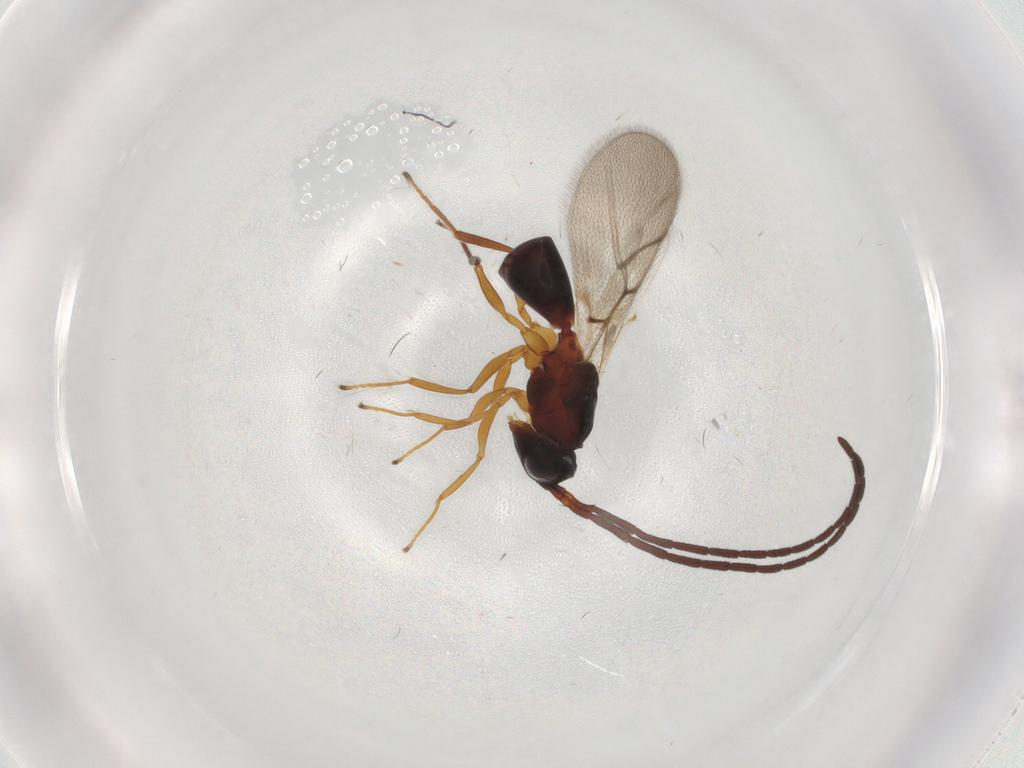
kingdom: Animalia
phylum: Arthropoda
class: Insecta
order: Hymenoptera
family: Figitidae
